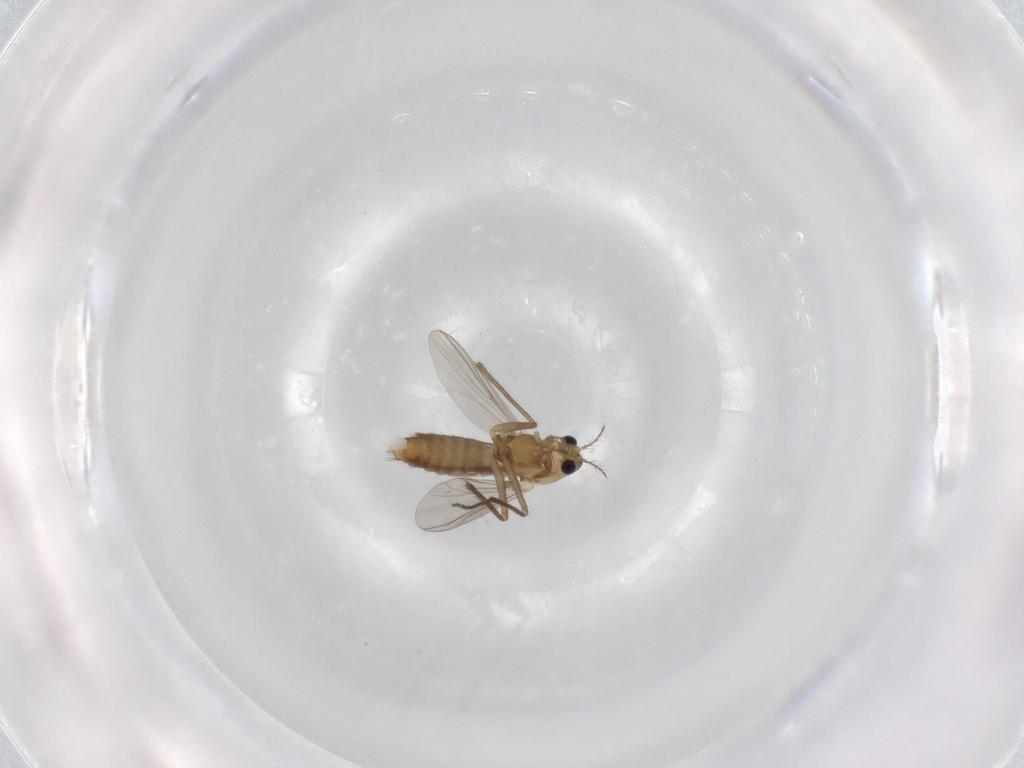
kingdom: Animalia
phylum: Arthropoda
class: Insecta
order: Diptera
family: Chironomidae
